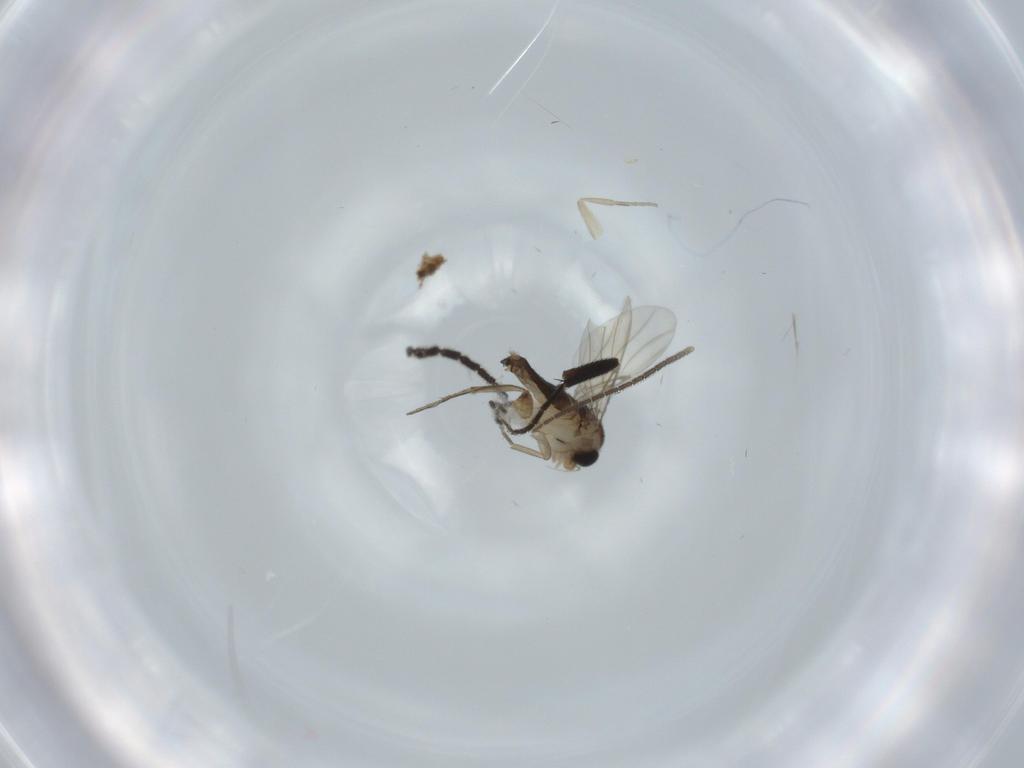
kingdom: Animalia
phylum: Arthropoda
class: Insecta
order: Diptera
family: Phoridae
